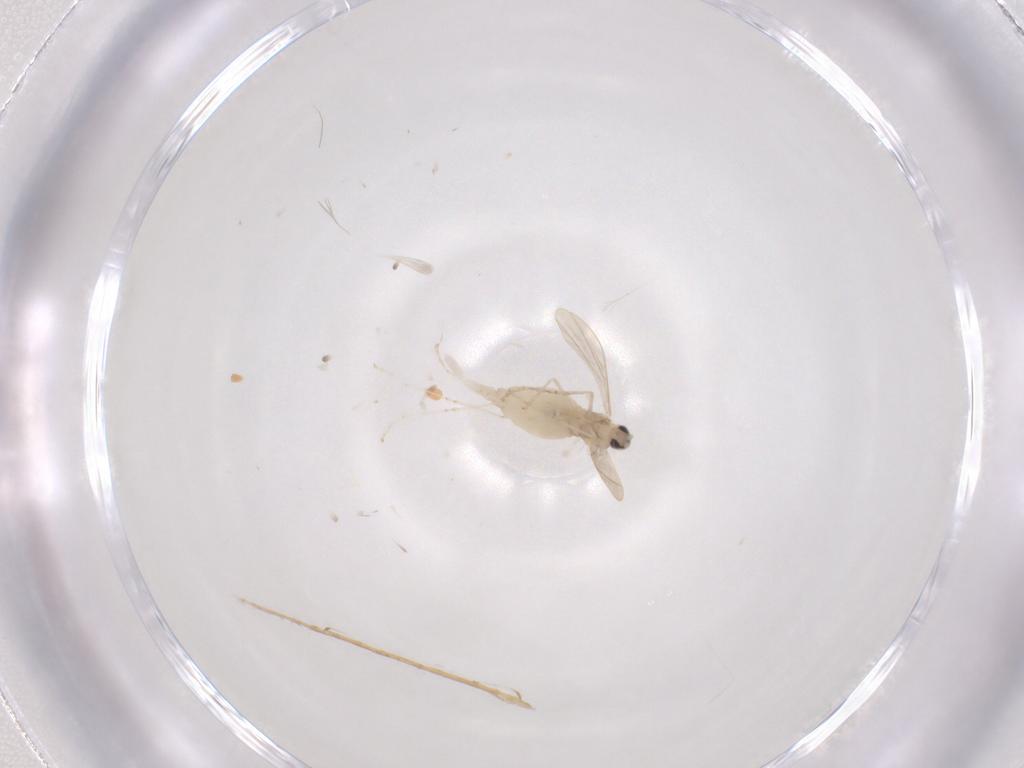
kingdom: Animalia
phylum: Arthropoda
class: Insecta
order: Diptera
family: Cecidomyiidae
